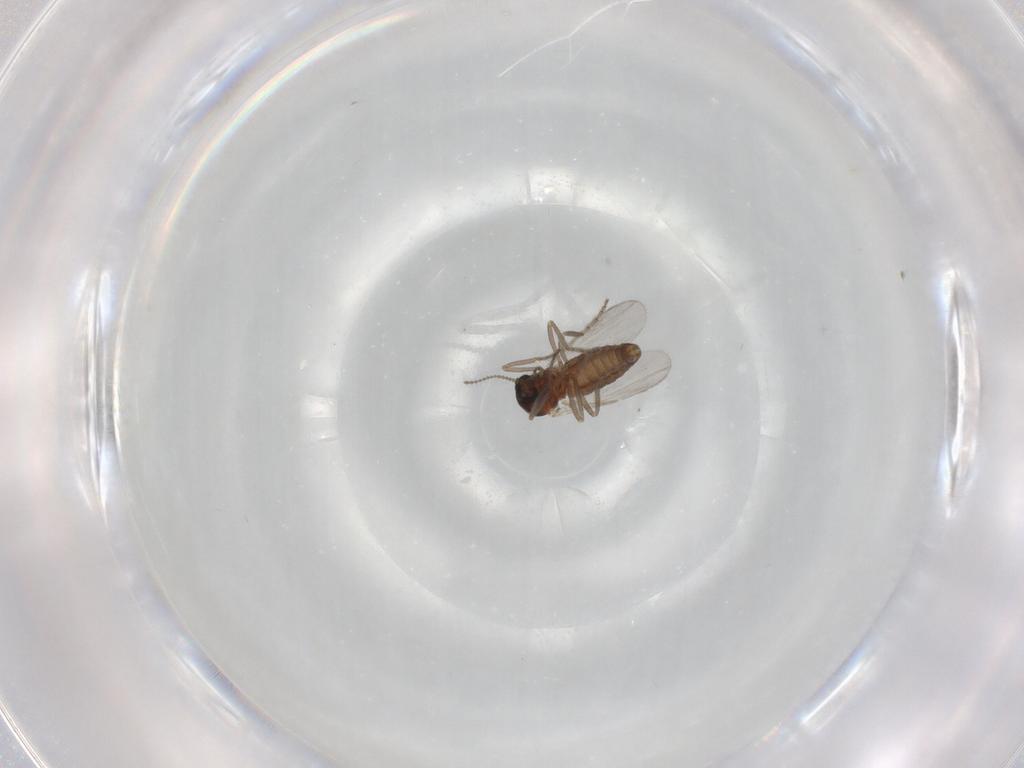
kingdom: Animalia
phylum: Arthropoda
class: Insecta
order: Diptera
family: Ceratopogonidae
